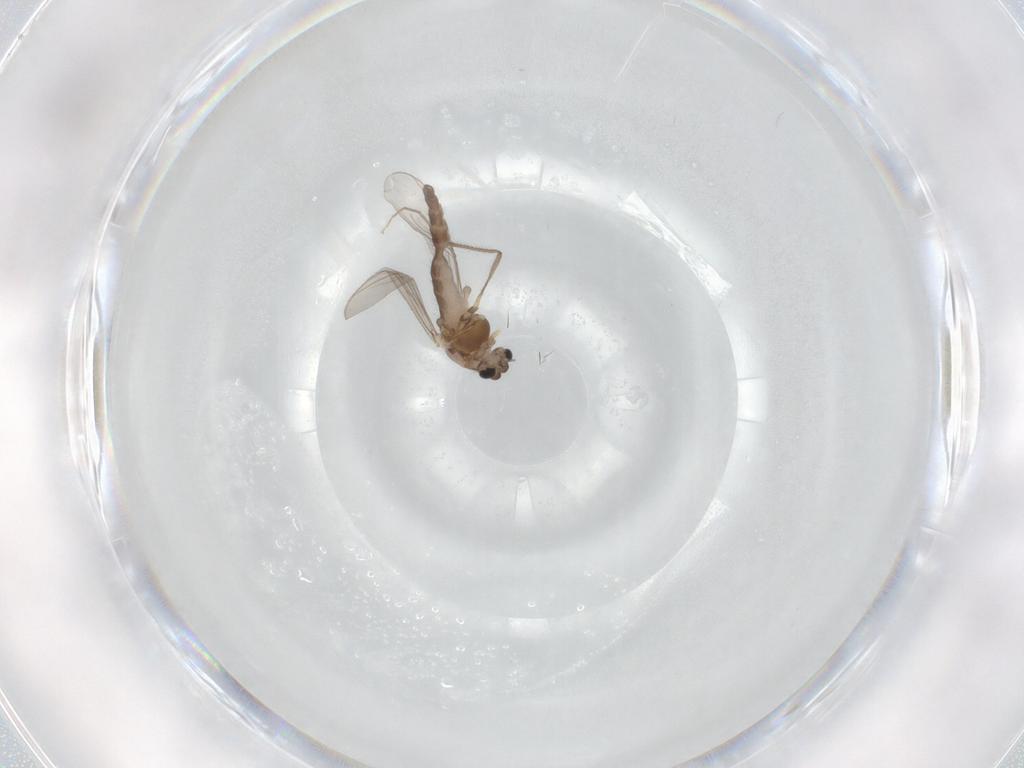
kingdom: Animalia
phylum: Arthropoda
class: Insecta
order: Diptera
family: Chironomidae
